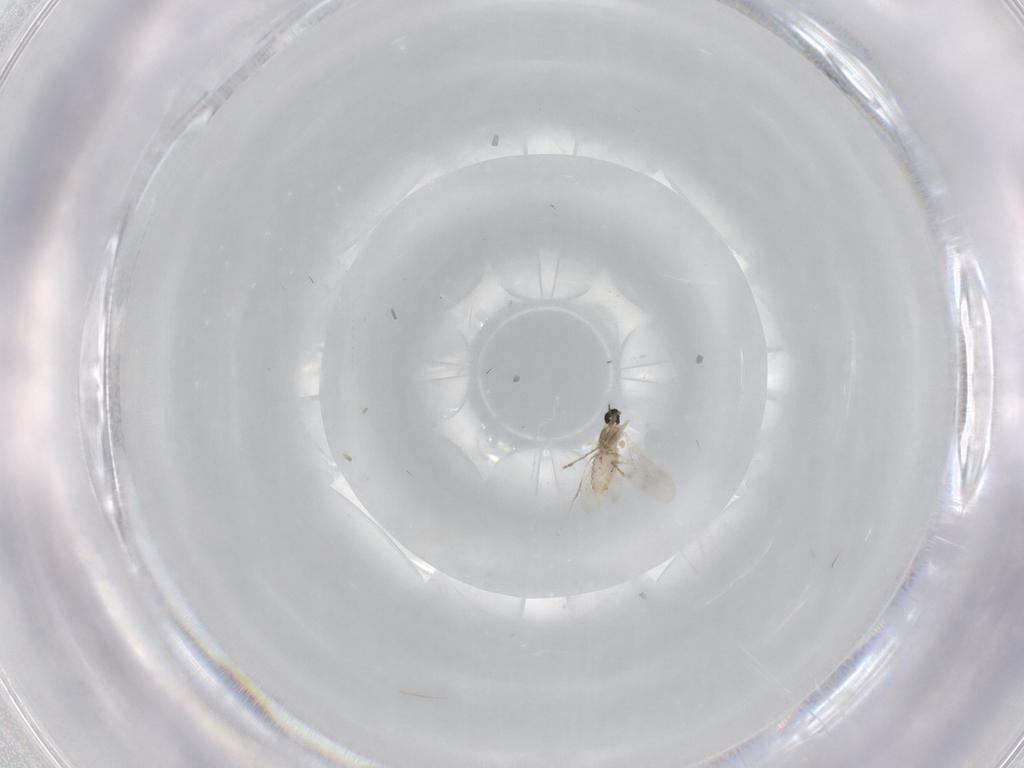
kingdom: Animalia
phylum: Arthropoda
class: Insecta
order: Diptera
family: Cecidomyiidae
